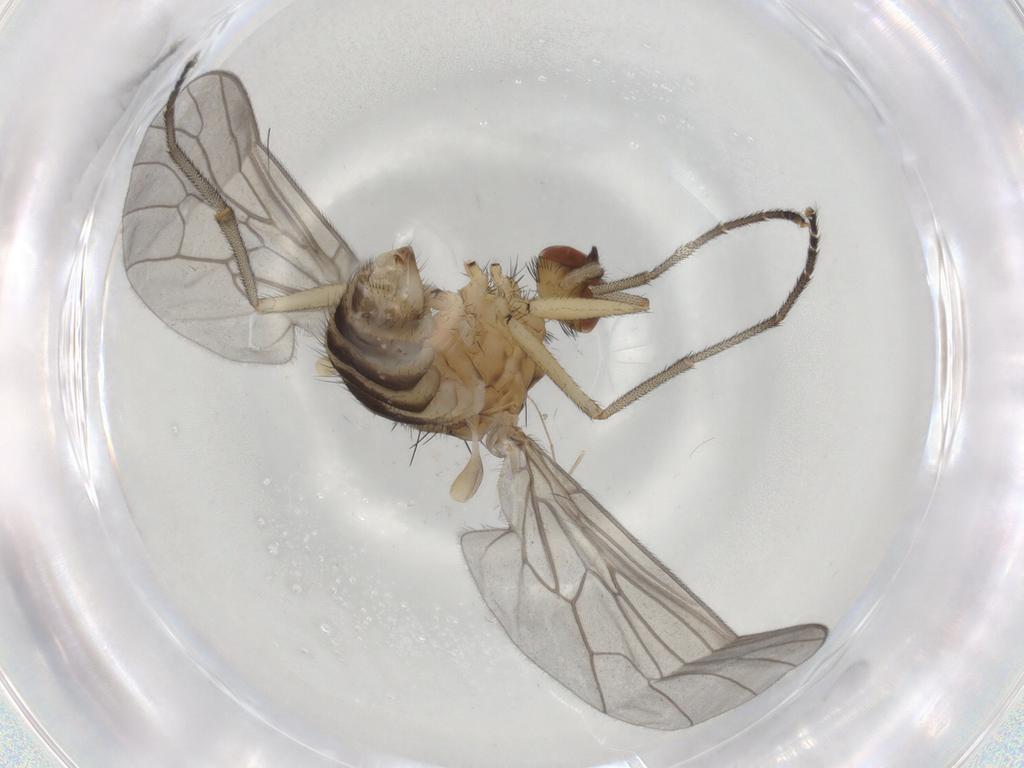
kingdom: Animalia
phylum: Arthropoda
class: Insecta
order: Diptera
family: Brachystomatidae
